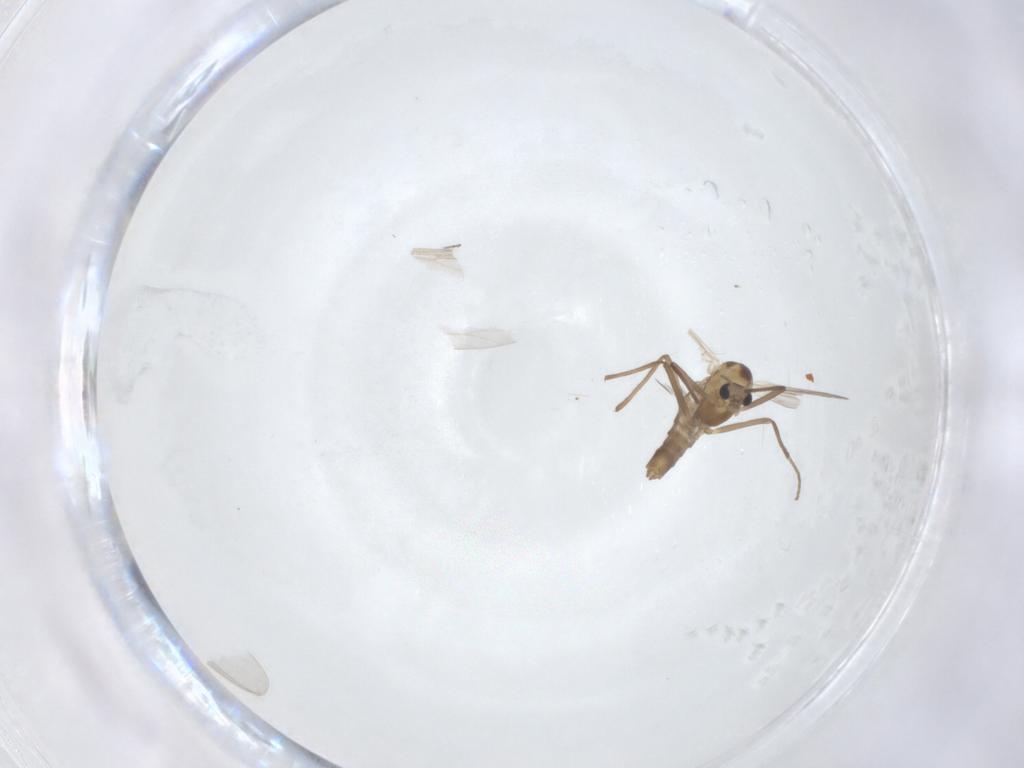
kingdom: Animalia
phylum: Arthropoda
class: Insecta
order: Diptera
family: Chironomidae
